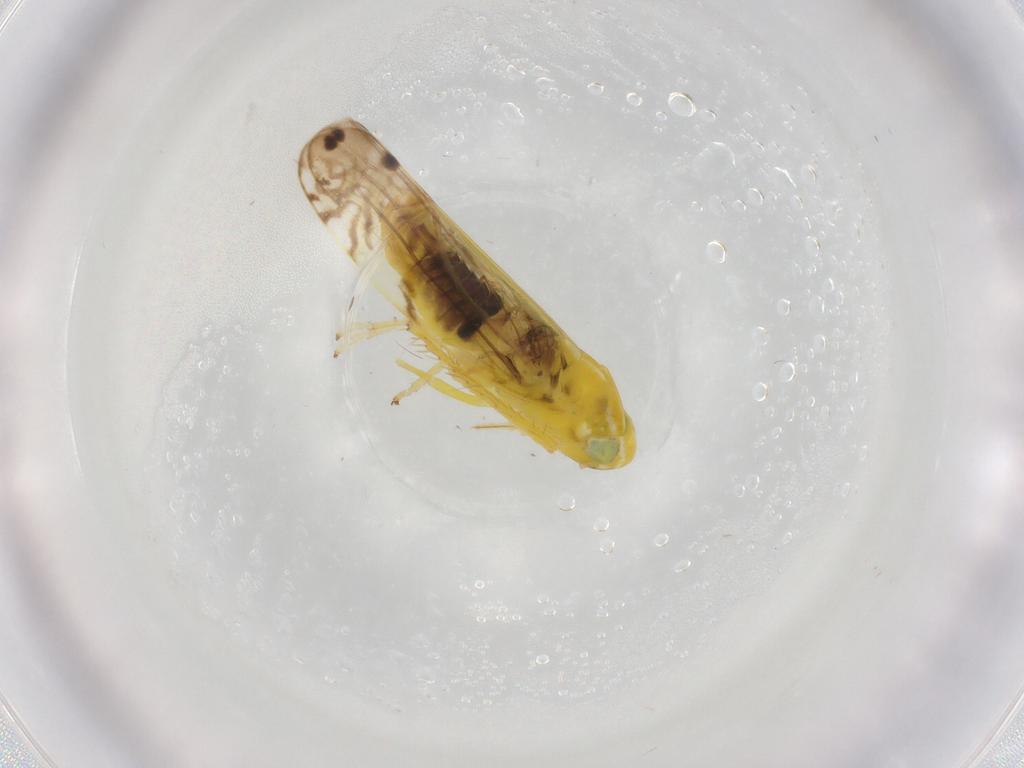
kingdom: Animalia
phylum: Arthropoda
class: Insecta
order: Hemiptera
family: Cicadellidae
